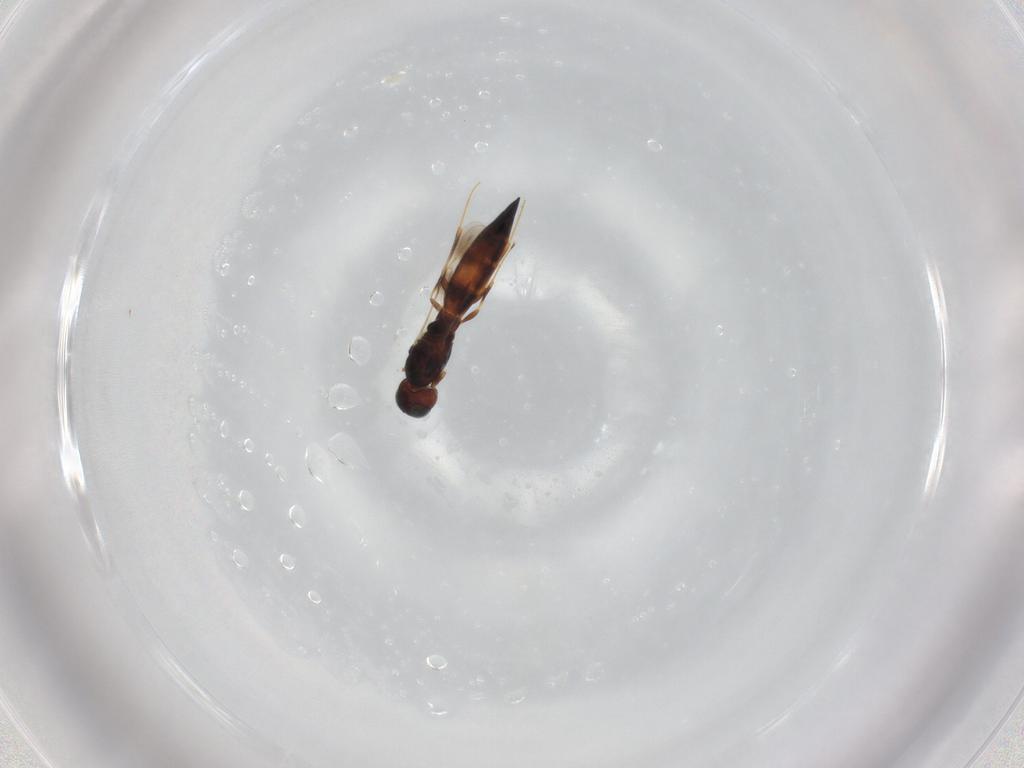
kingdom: Animalia
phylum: Arthropoda
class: Insecta
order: Hymenoptera
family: Scelionidae
